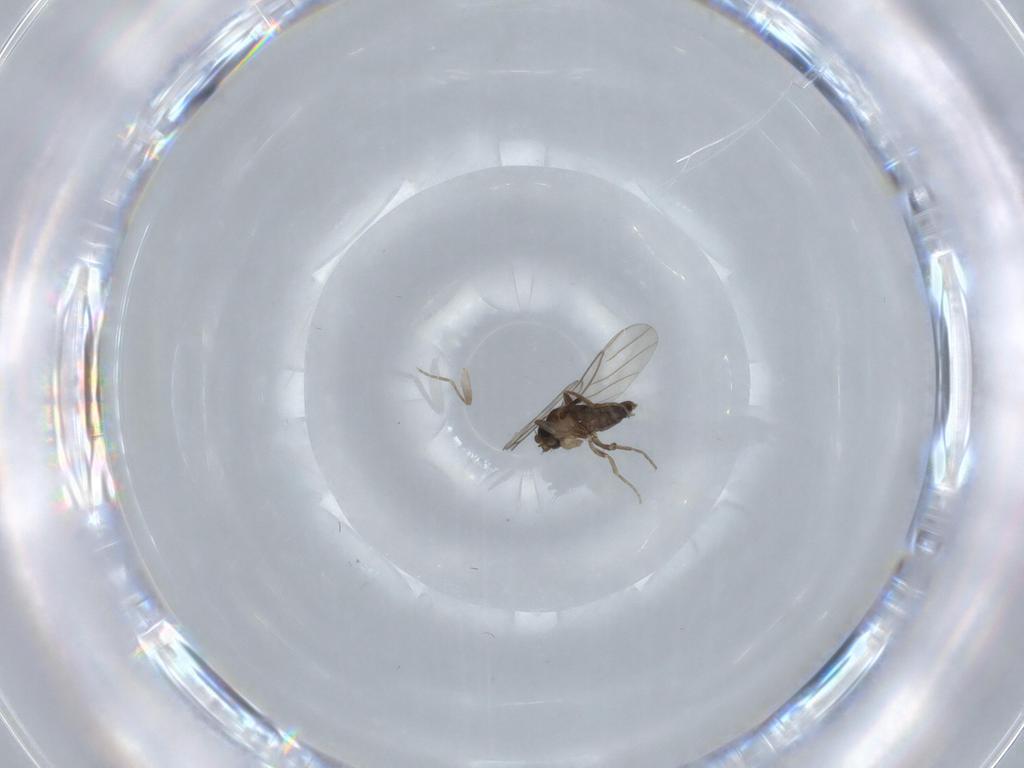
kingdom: Animalia
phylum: Arthropoda
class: Insecta
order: Diptera
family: Phoridae
